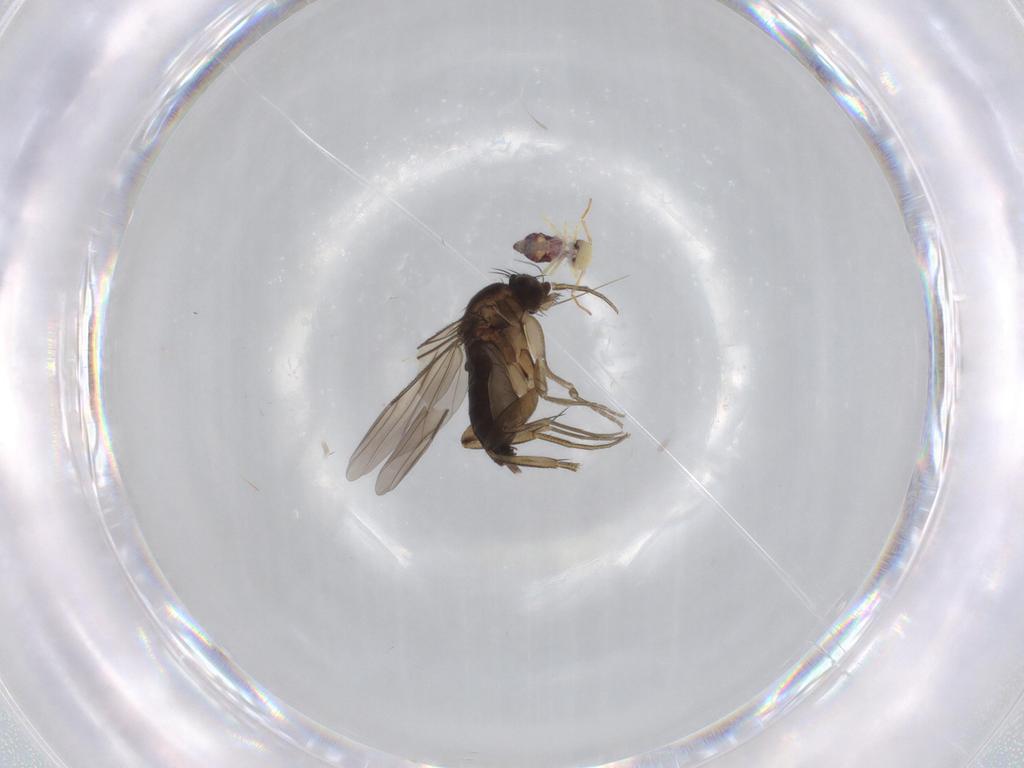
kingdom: Animalia
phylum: Arthropoda
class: Collembola
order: Symphypleona
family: Bourletiellidae
